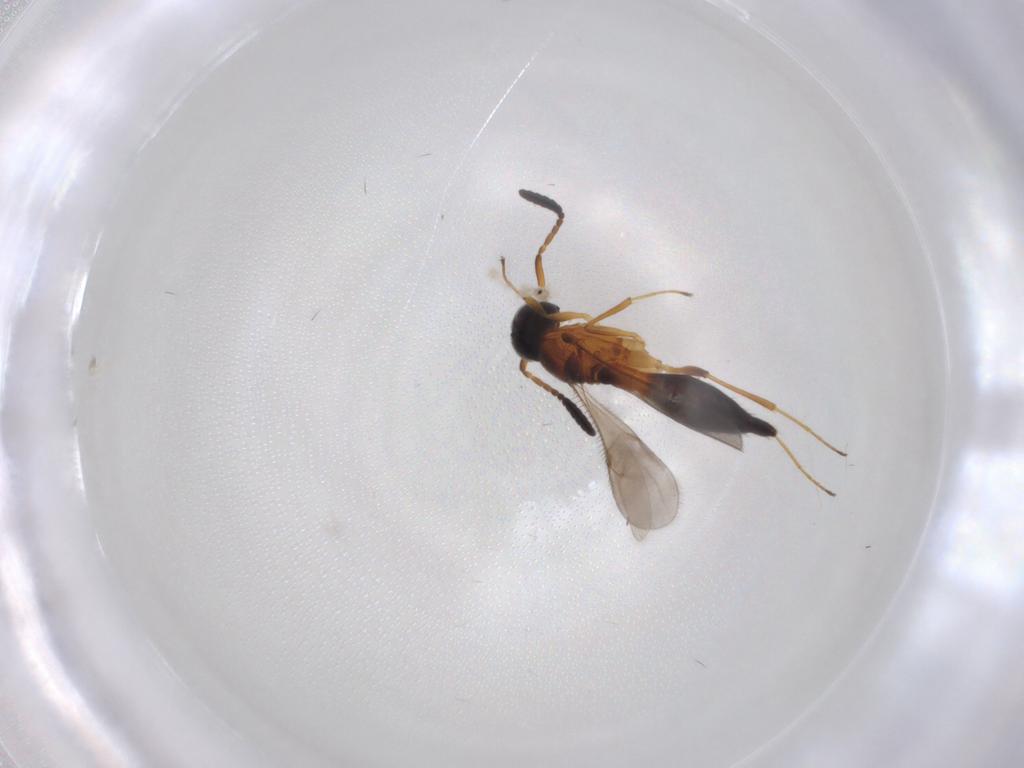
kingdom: Animalia
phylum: Arthropoda
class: Insecta
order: Hymenoptera
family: Scelionidae
